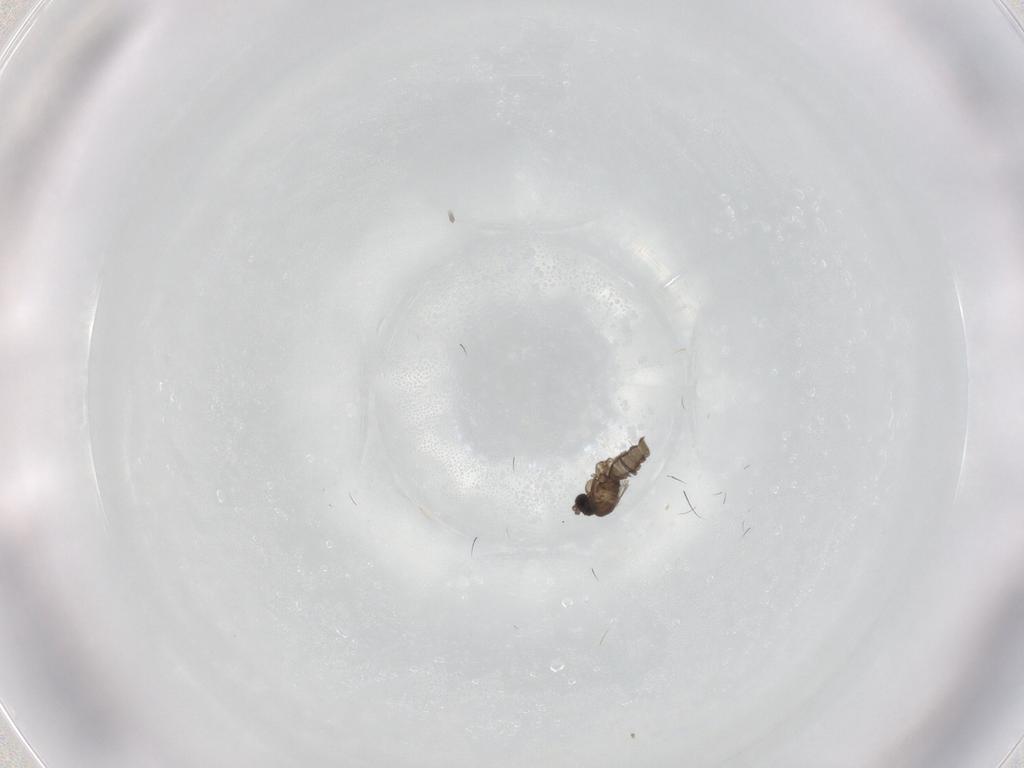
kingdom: Animalia
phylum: Arthropoda
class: Insecta
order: Diptera
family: Sciaridae
